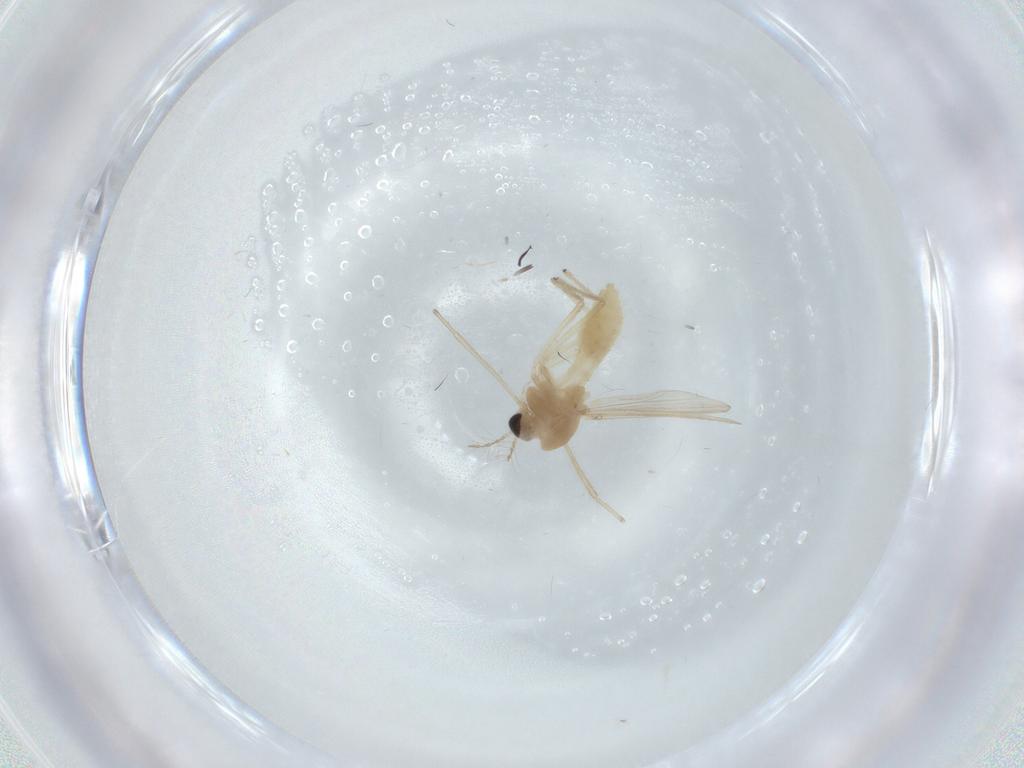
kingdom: Animalia
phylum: Arthropoda
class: Insecta
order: Diptera
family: Chironomidae
